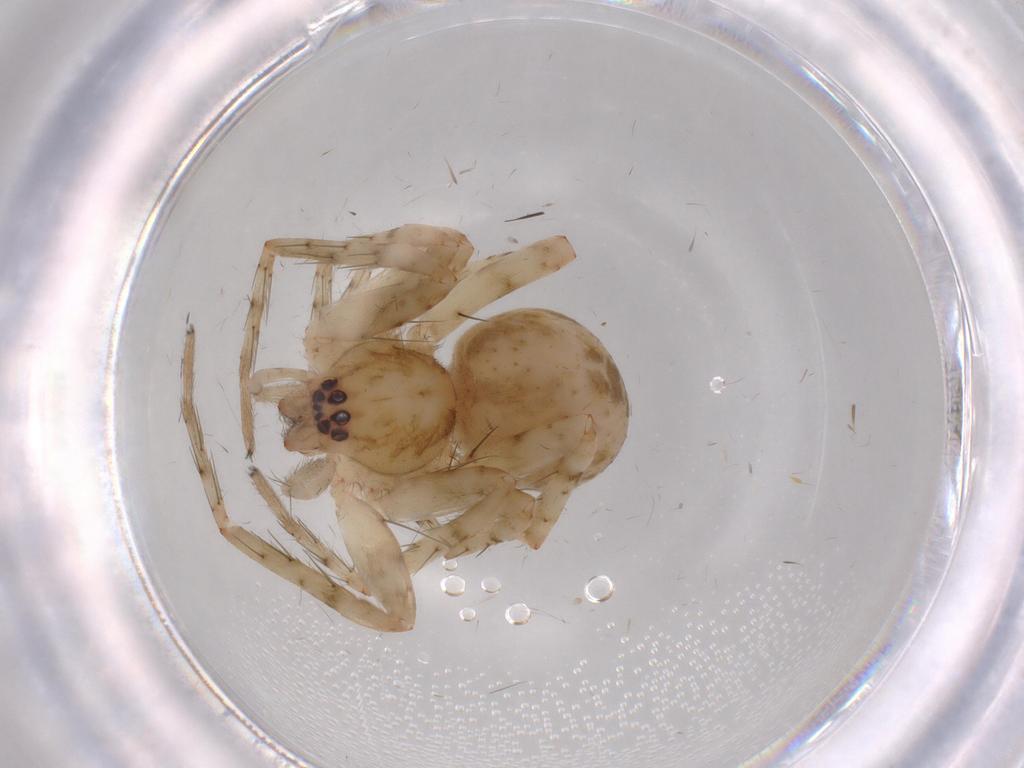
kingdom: Animalia
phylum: Arthropoda
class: Arachnida
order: Araneae
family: Anyphaenidae
